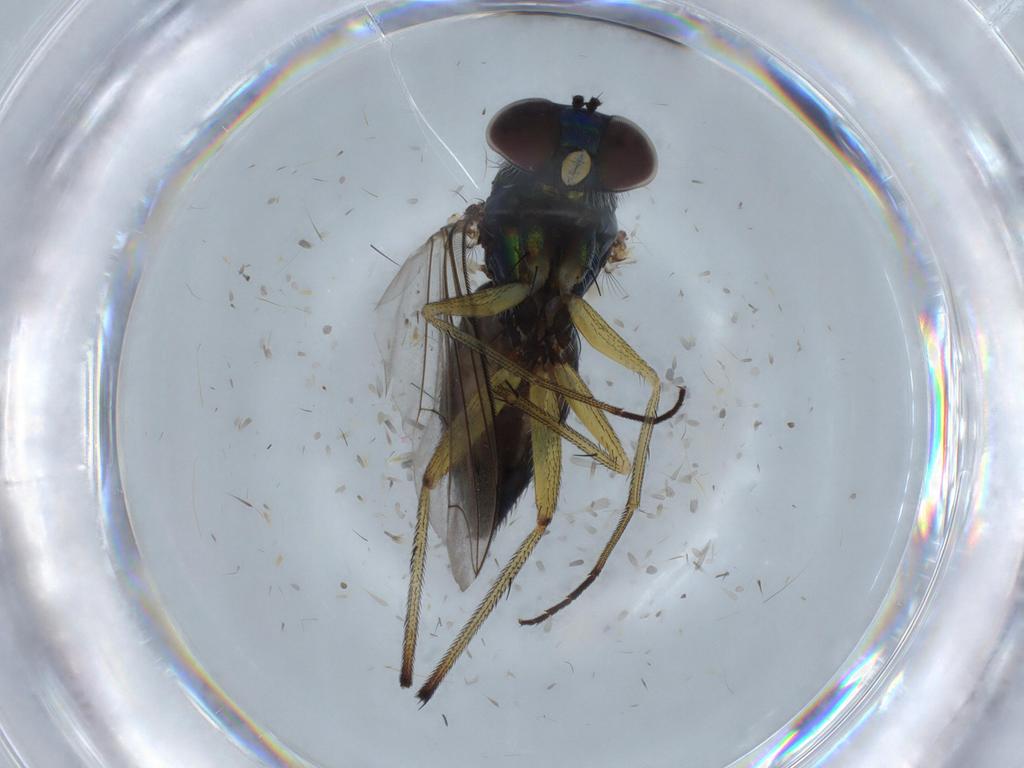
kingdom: Animalia
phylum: Arthropoda
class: Insecta
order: Diptera
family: Dolichopodidae
